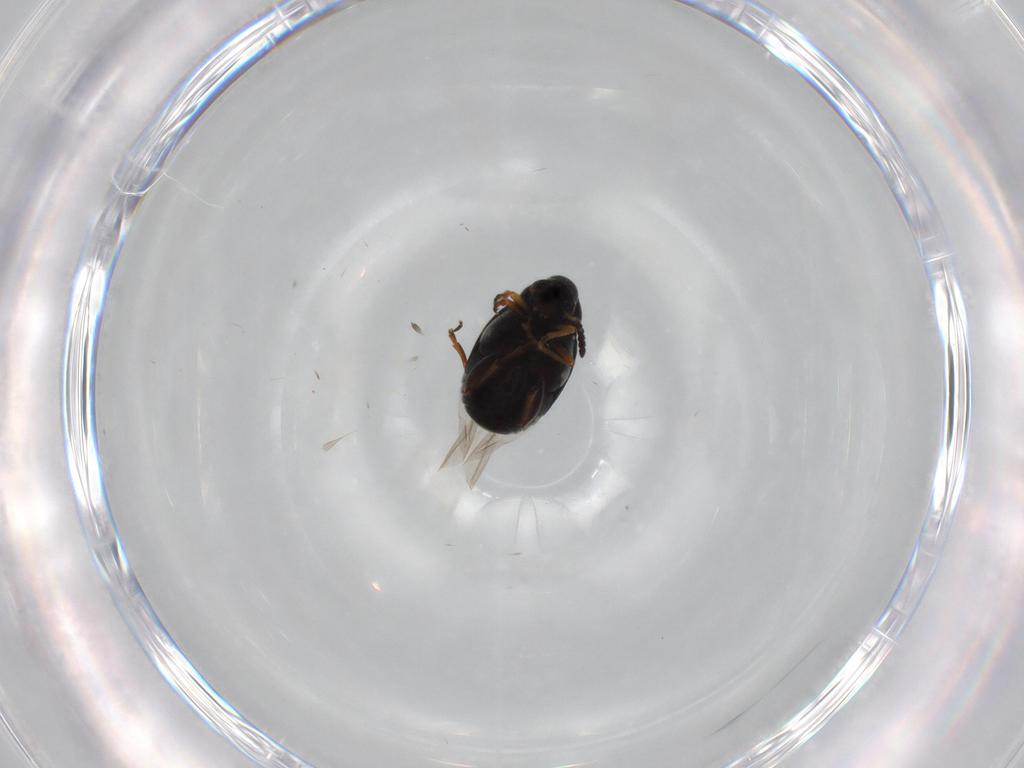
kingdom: Animalia
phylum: Arthropoda
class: Insecta
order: Coleoptera
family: Chrysomelidae
